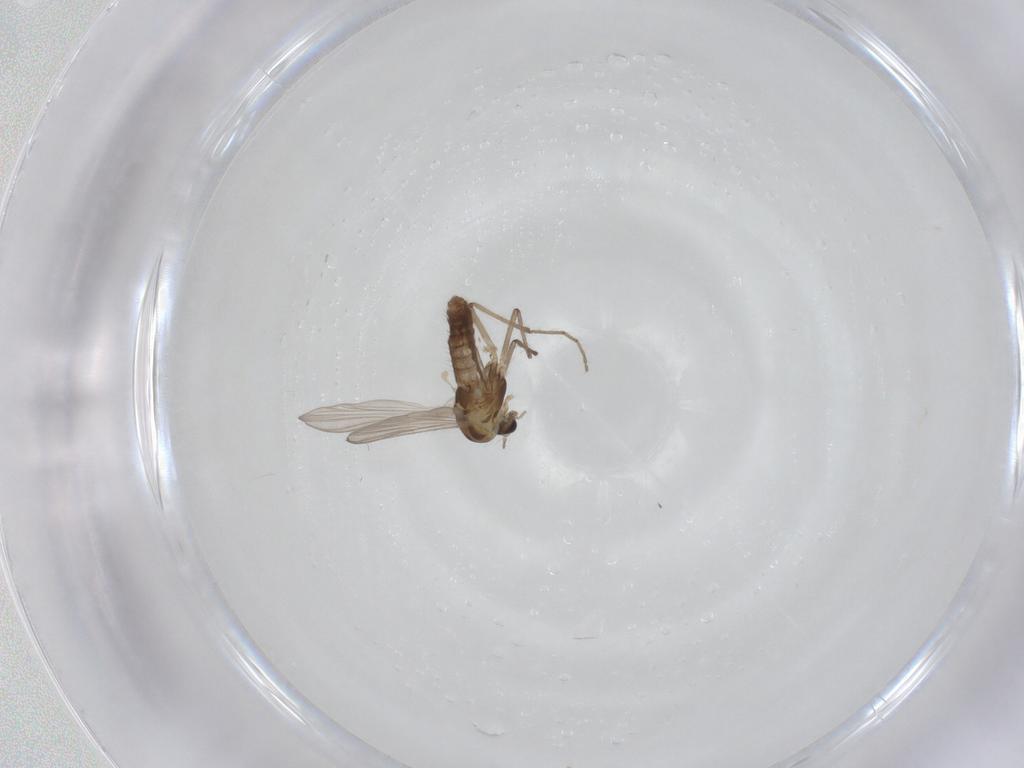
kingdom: Animalia
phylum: Arthropoda
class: Insecta
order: Diptera
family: Chironomidae
